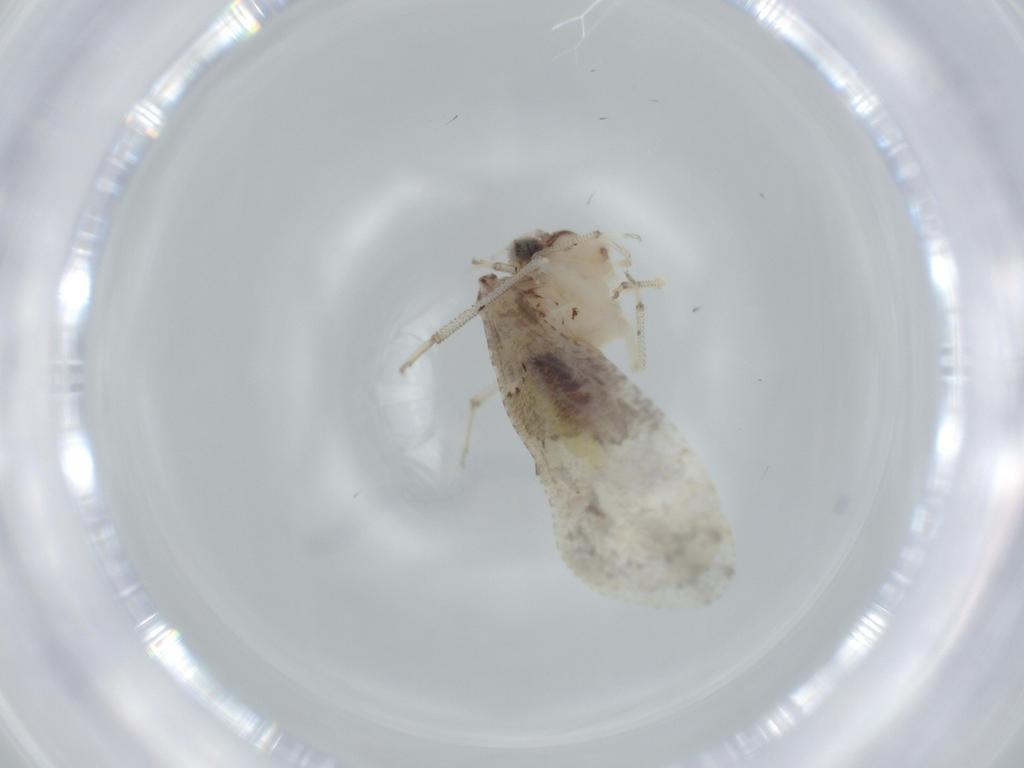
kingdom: Animalia
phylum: Arthropoda
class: Insecta
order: Psocodea
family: Psocidae
